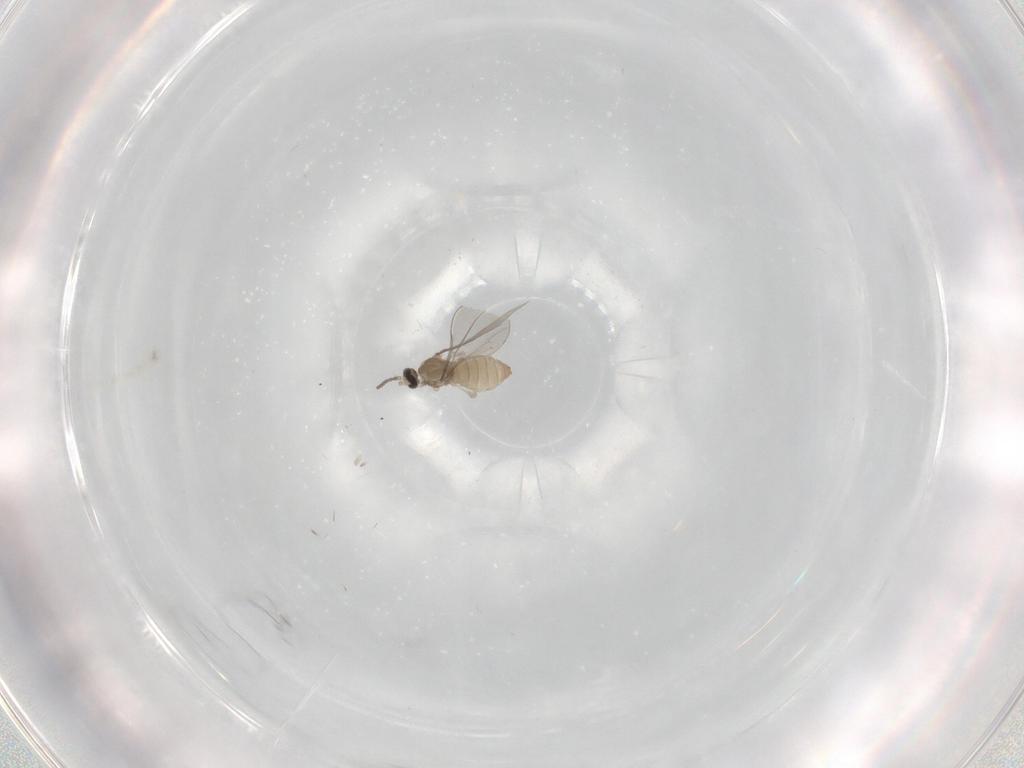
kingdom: Animalia
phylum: Arthropoda
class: Insecta
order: Diptera
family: Cecidomyiidae
